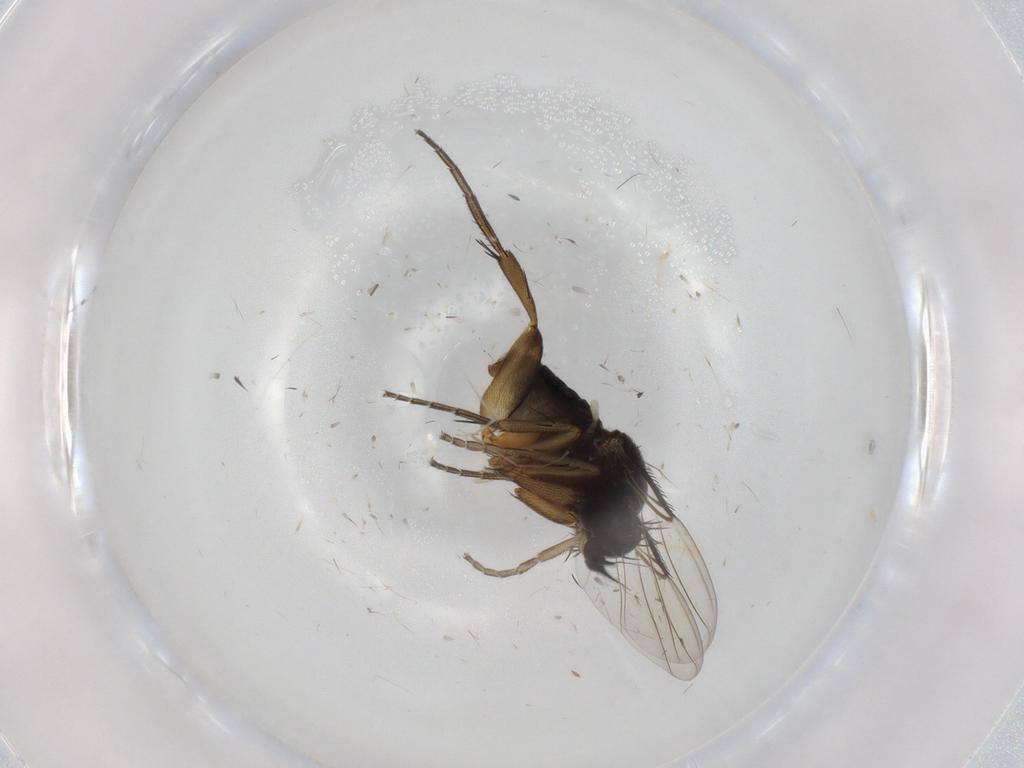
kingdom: Animalia
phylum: Arthropoda
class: Insecta
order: Diptera
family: Phoridae
